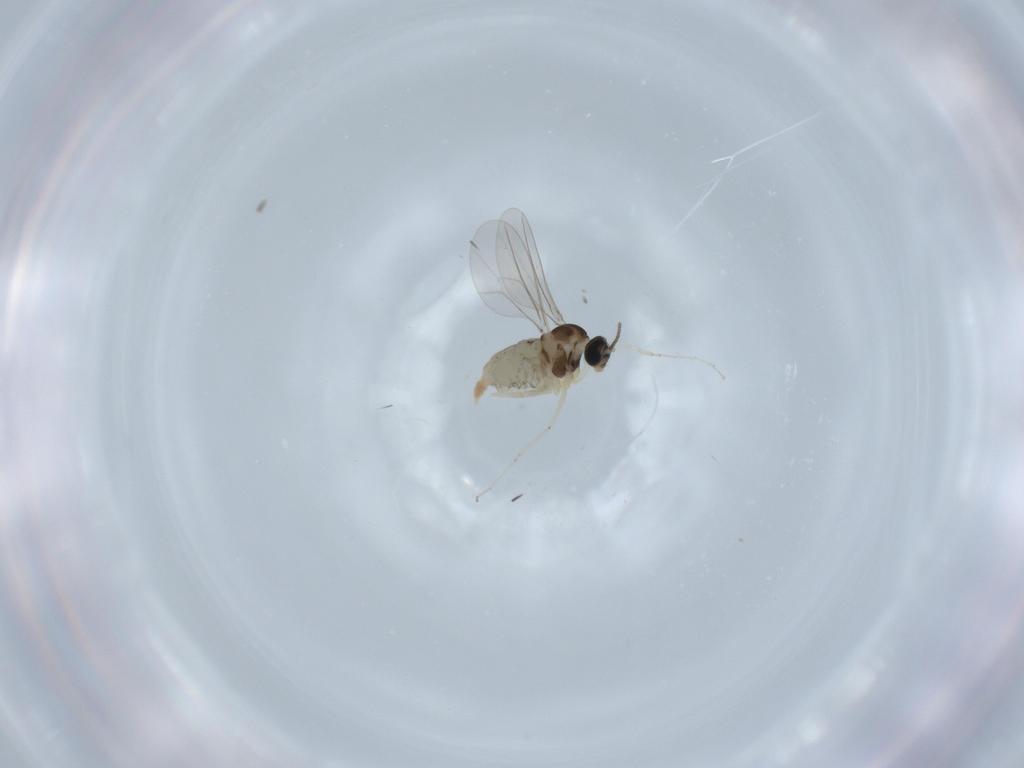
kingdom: Animalia
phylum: Arthropoda
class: Insecta
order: Diptera
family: Cecidomyiidae
